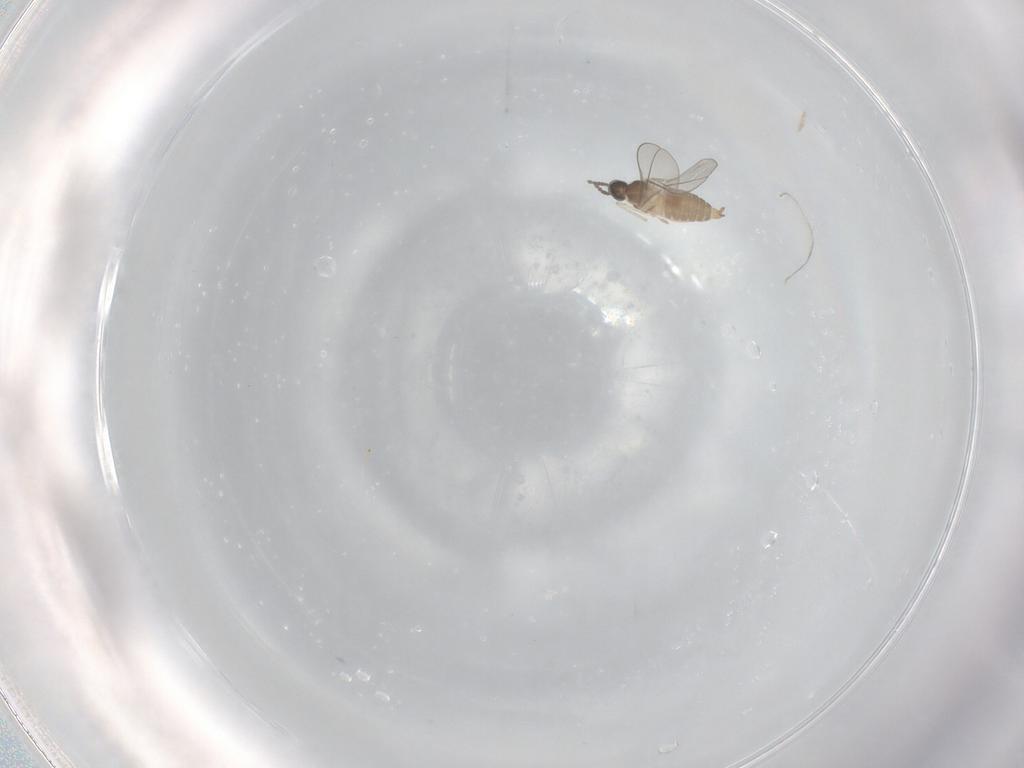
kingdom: Animalia
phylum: Arthropoda
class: Insecta
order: Diptera
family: Cecidomyiidae
